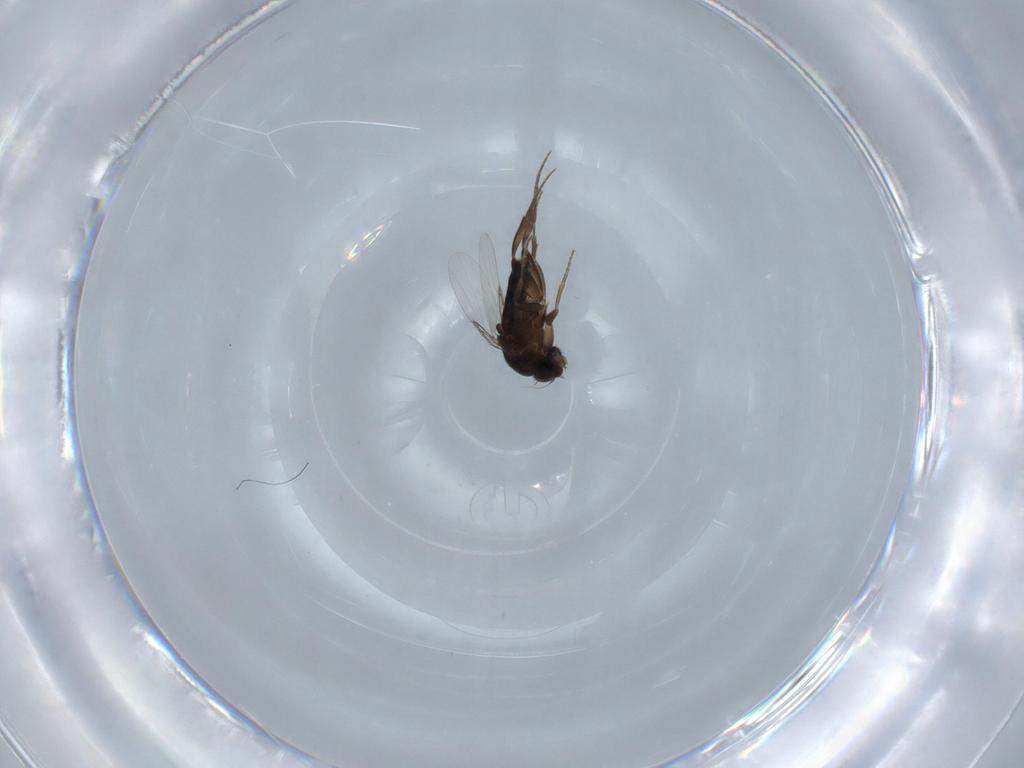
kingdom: Animalia
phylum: Arthropoda
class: Insecta
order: Diptera
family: Phoridae
